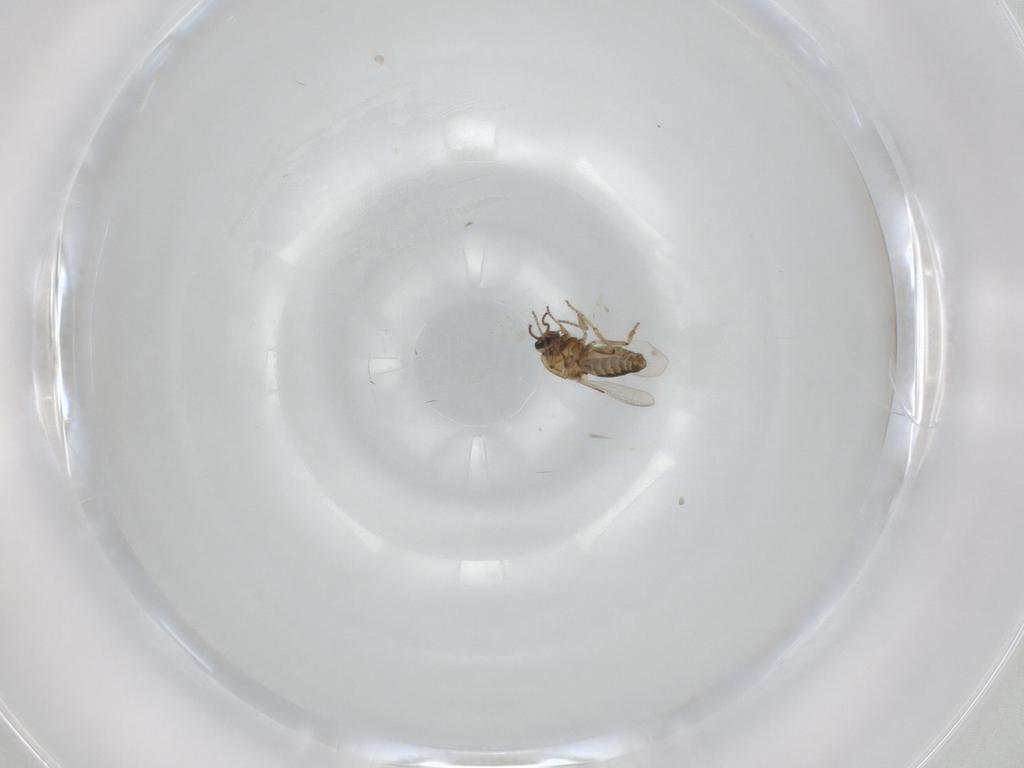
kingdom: Animalia
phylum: Arthropoda
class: Insecta
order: Diptera
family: Ceratopogonidae
